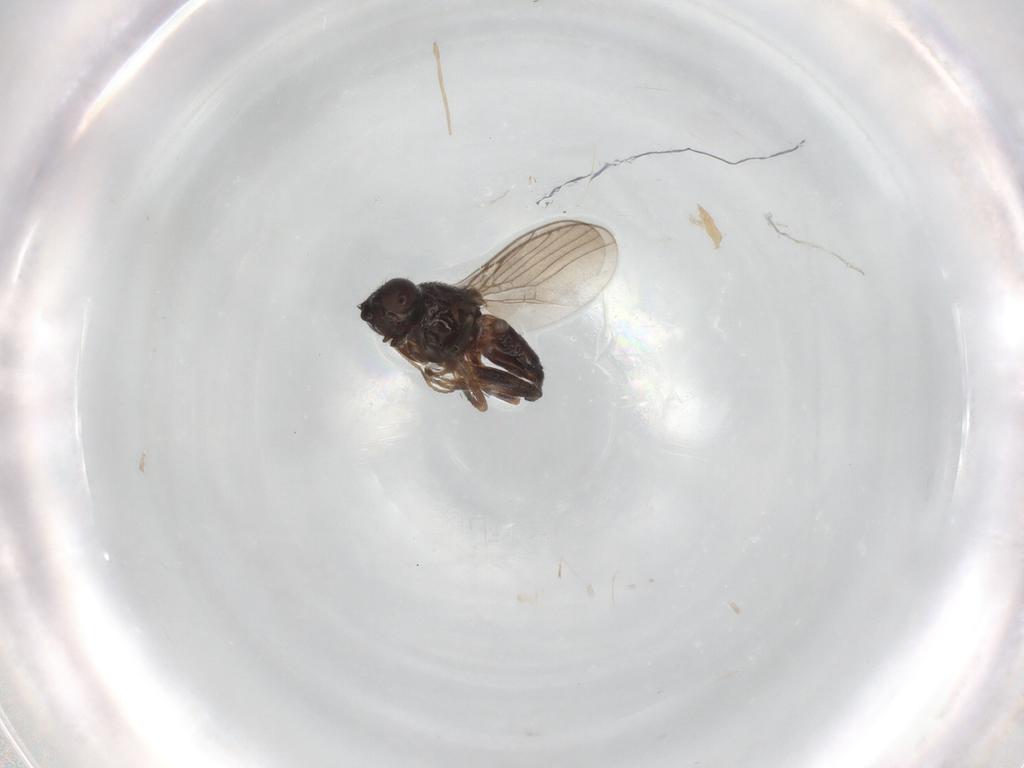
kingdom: Animalia
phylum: Arthropoda
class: Insecta
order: Diptera
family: Chloropidae
